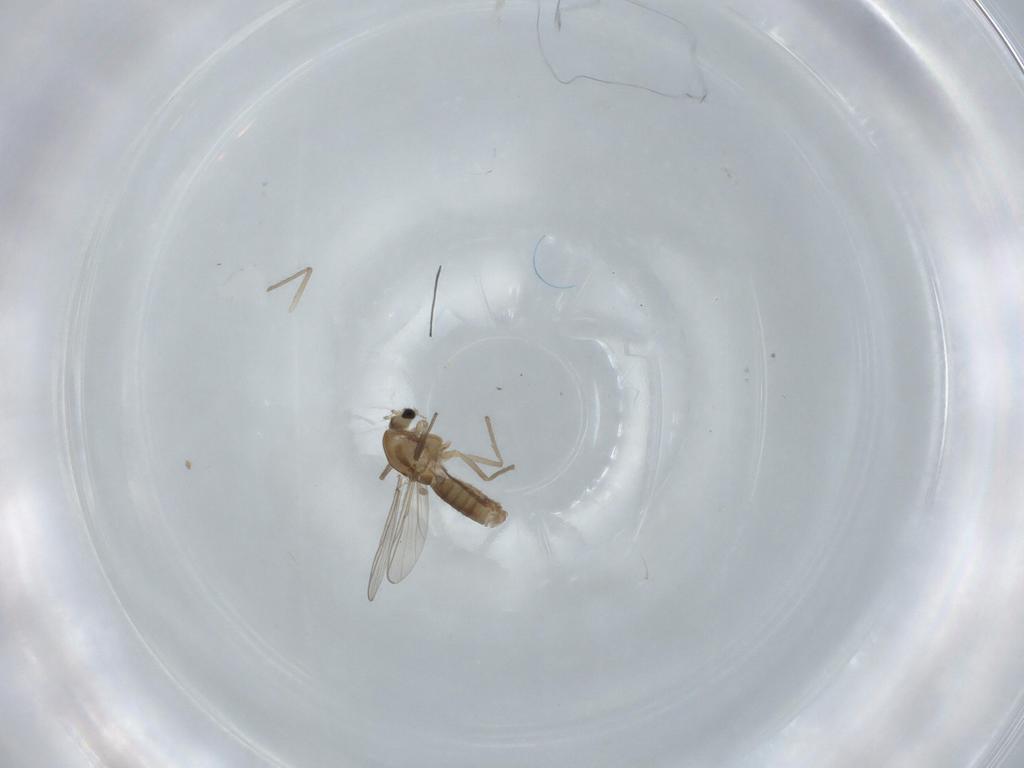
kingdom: Animalia
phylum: Arthropoda
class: Insecta
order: Diptera
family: Chironomidae
